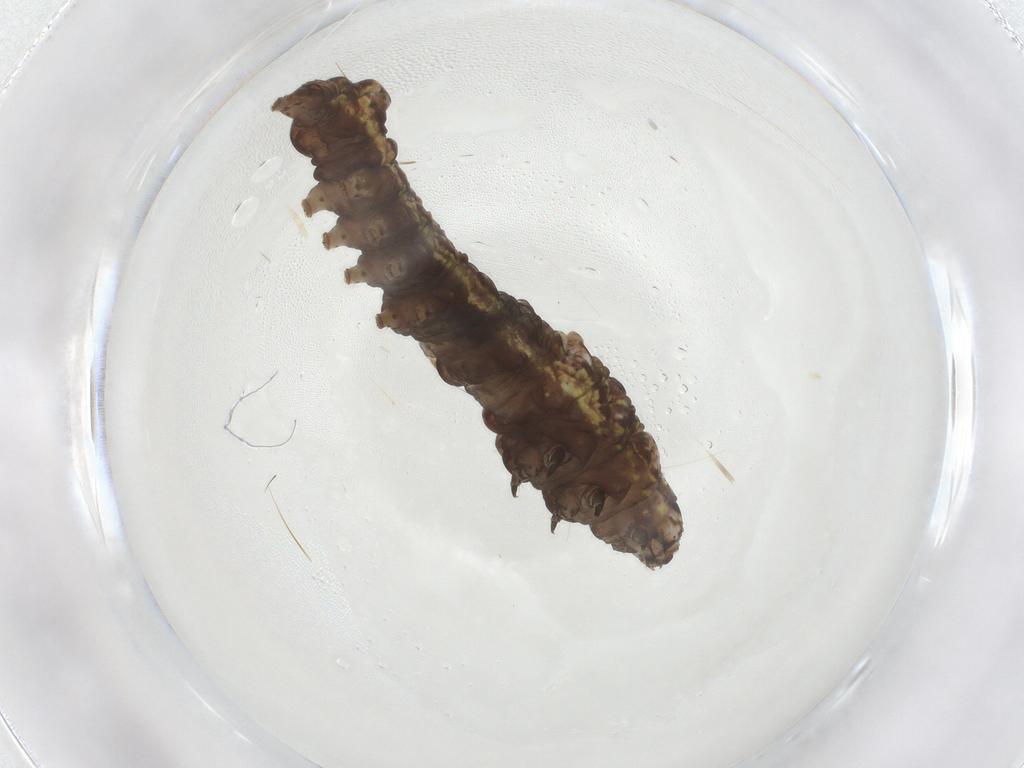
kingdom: Animalia
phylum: Arthropoda
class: Insecta
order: Lepidoptera
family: Noctuidae
